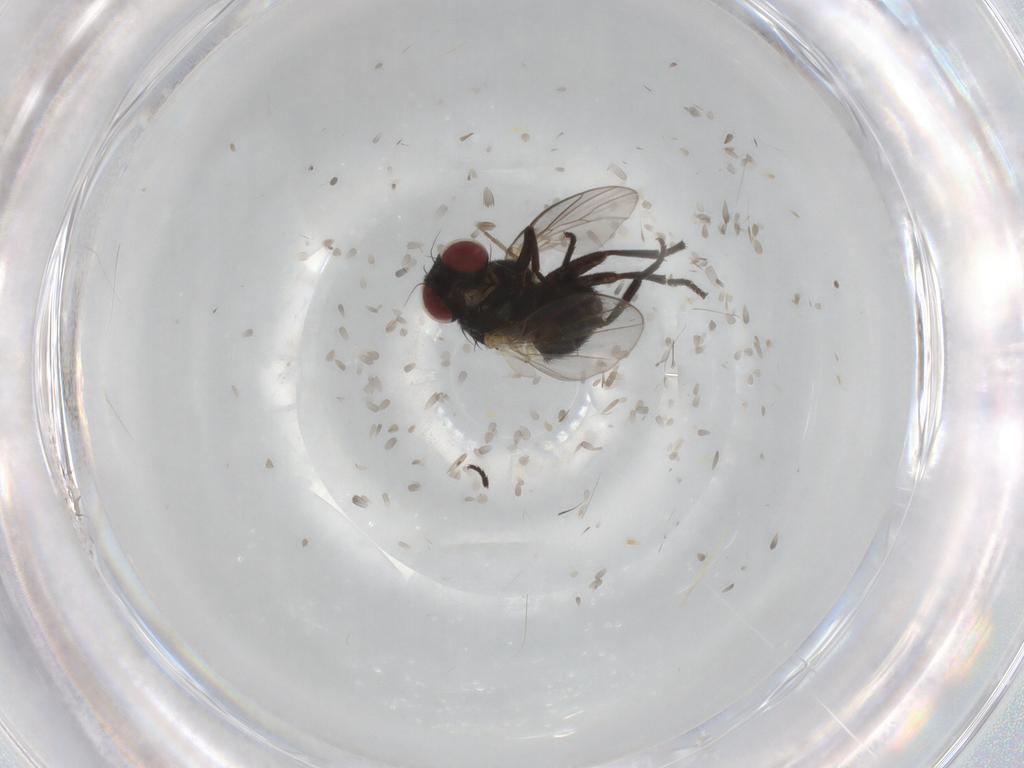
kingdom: Animalia
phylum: Arthropoda
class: Insecta
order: Diptera
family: Agromyzidae
